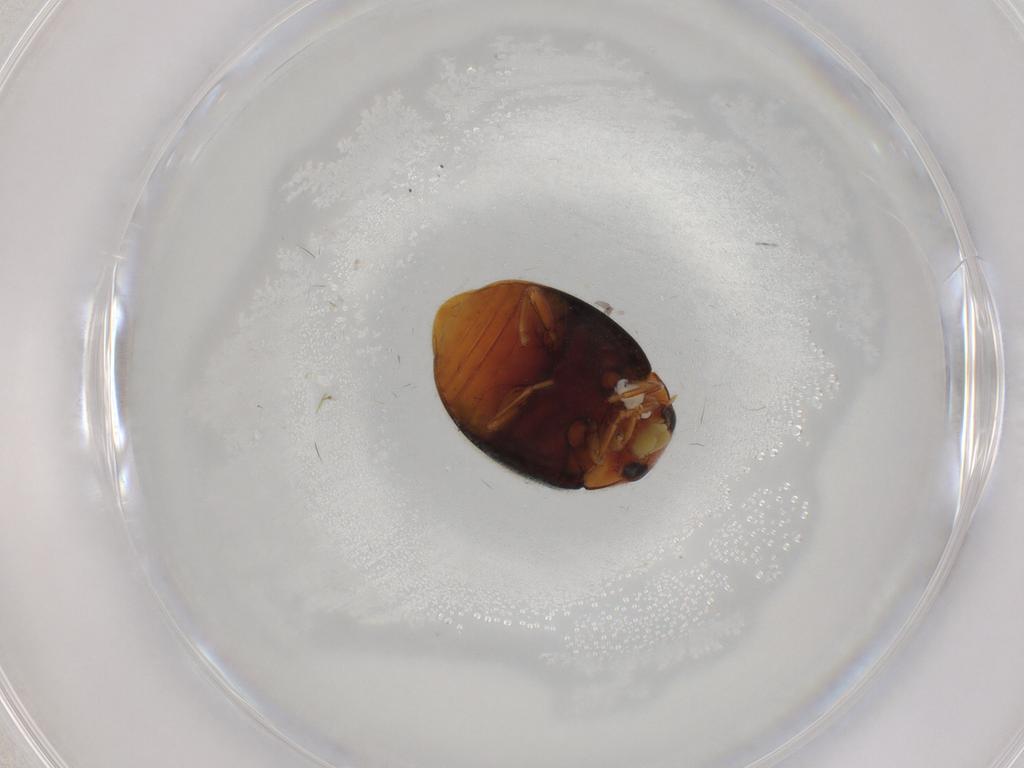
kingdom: Animalia
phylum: Arthropoda
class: Insecta
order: Coleoptera
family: Coccinellidae
